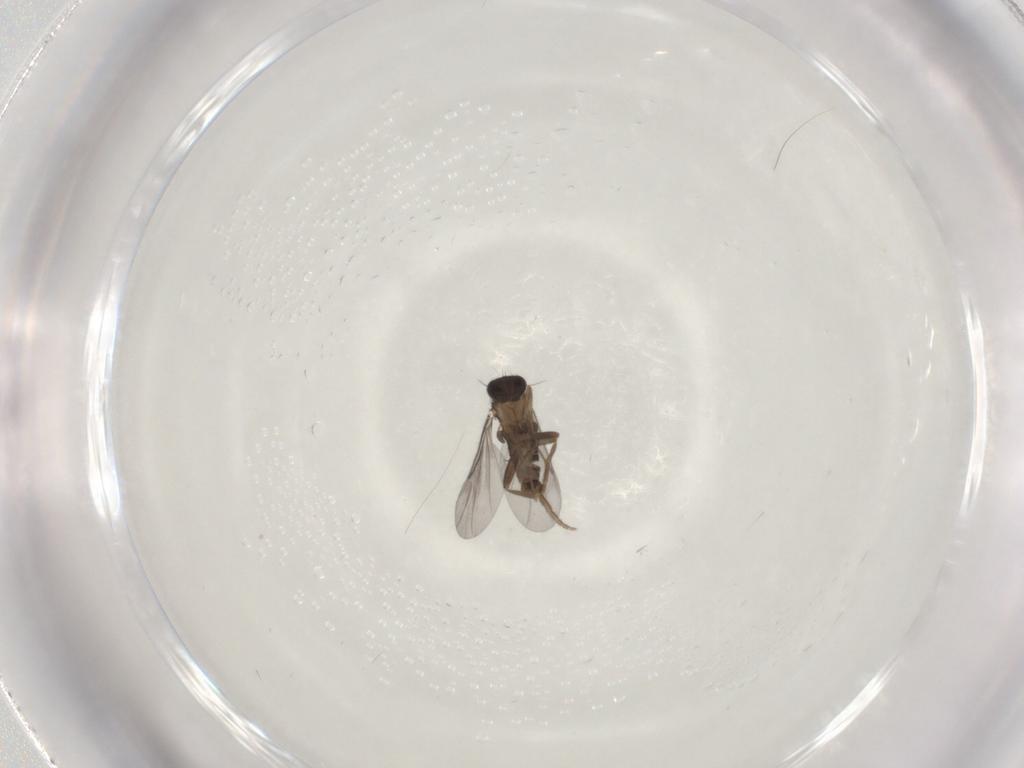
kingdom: Animalia
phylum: Arthropoda
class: Insecta
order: Diptera
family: Phoridae
